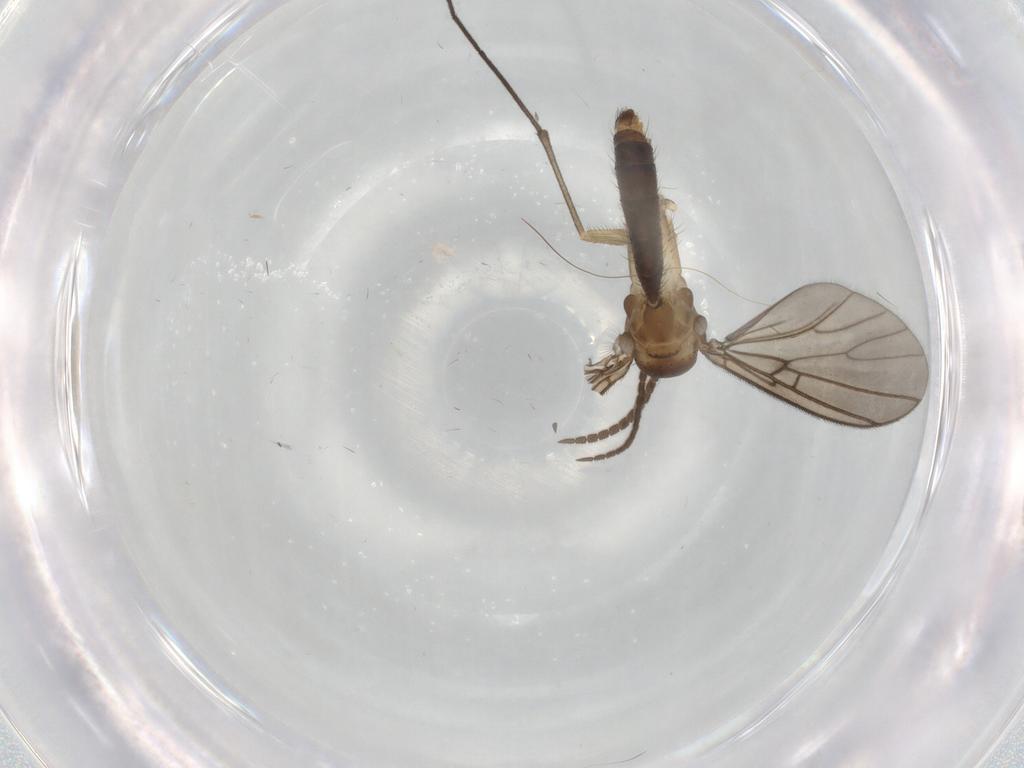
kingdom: Animalia
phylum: Arthropoda
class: Insecta
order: Diptera
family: Mycetophilidae
